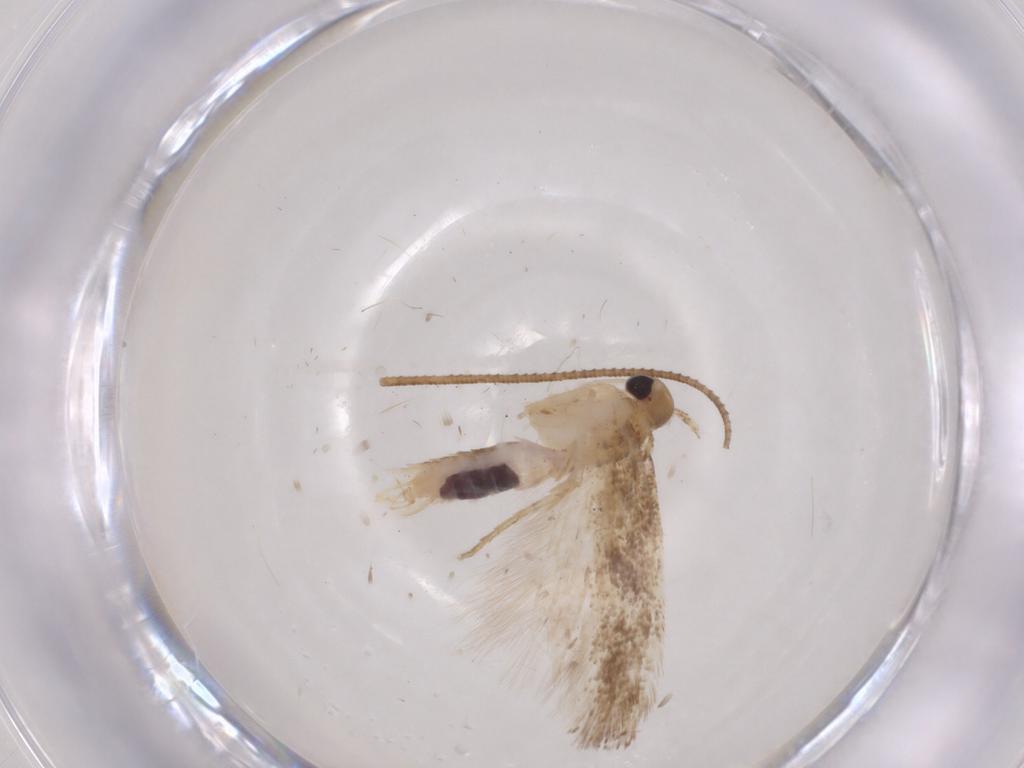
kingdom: Animalia
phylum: Arthropoda
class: Insecta
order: Lepidoptera
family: Gelechiidae
